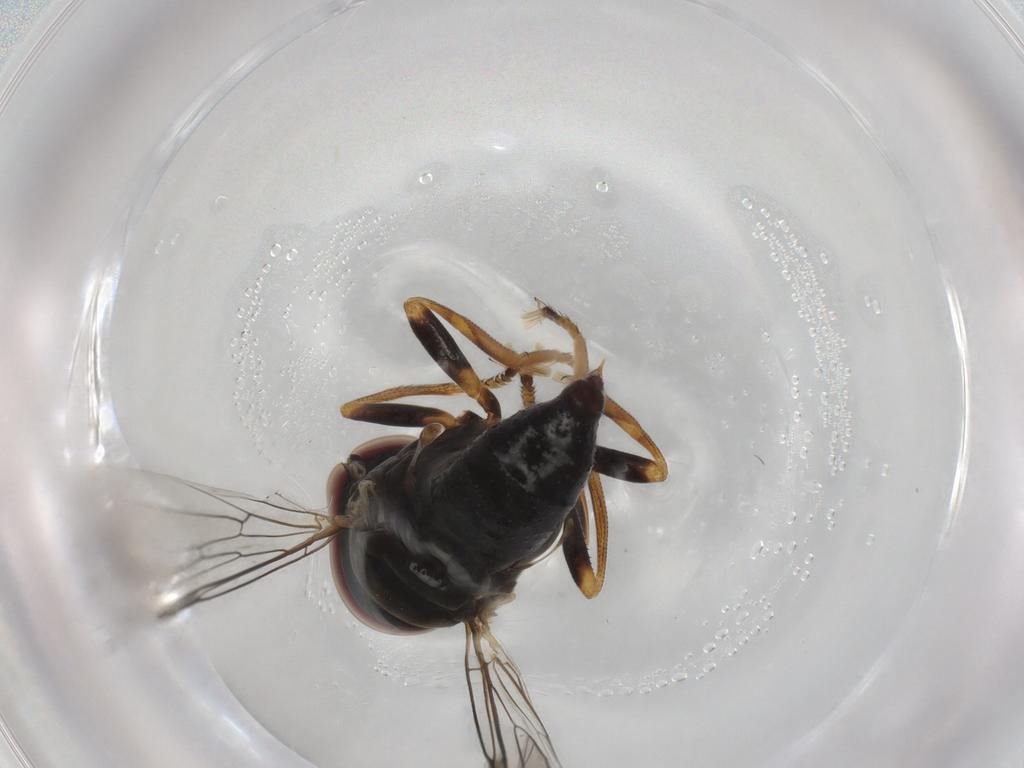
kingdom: Animalia
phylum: Arthropoda
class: Insecta
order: Diptera
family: Pipunculidae
